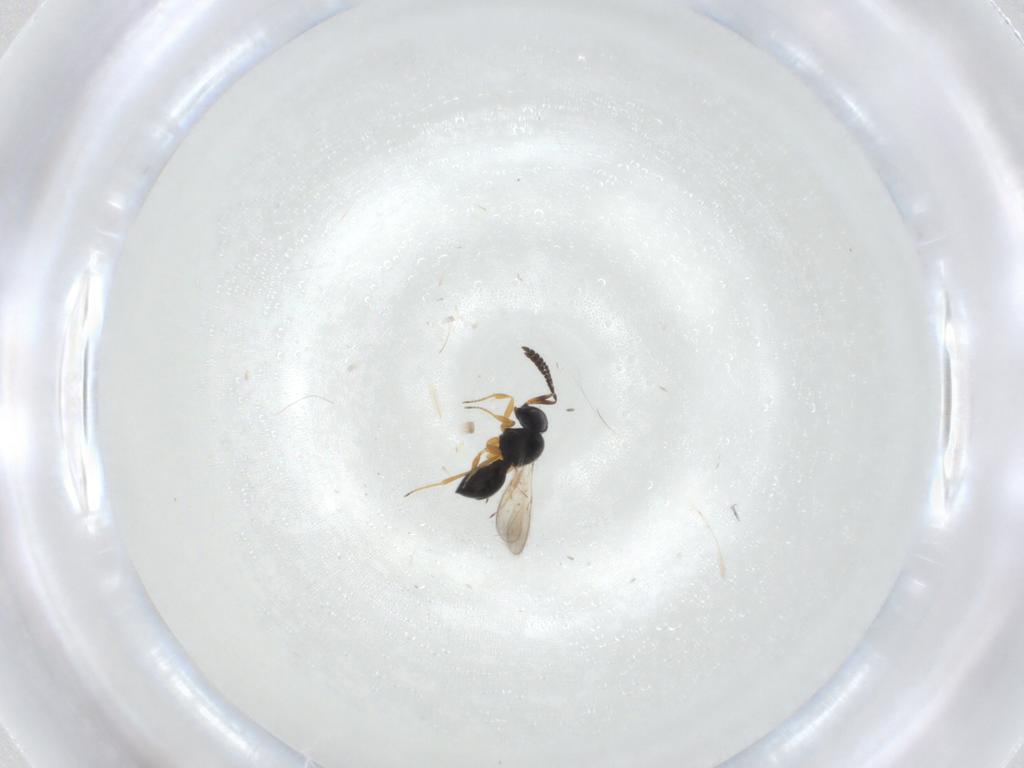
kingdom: Animalia
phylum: Arthropoda
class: Insecta
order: Hymenoptera
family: Scelionidae
